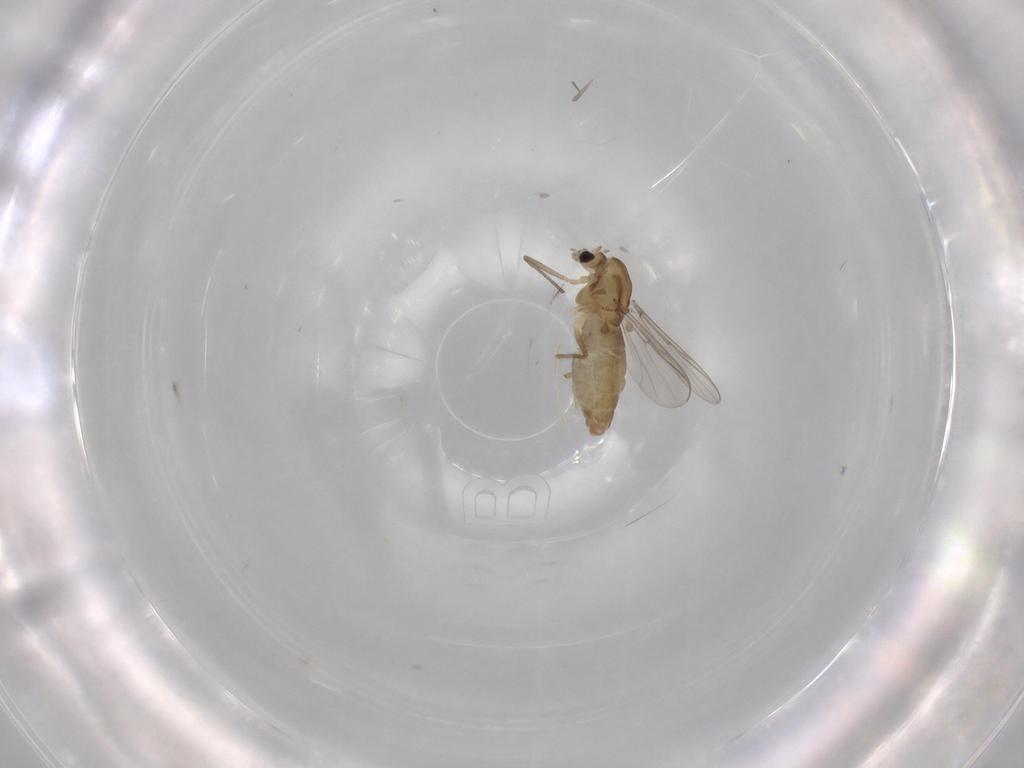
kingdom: Animalia
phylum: Arthropoda
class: Insecta
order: Diptera
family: Chironomidae
